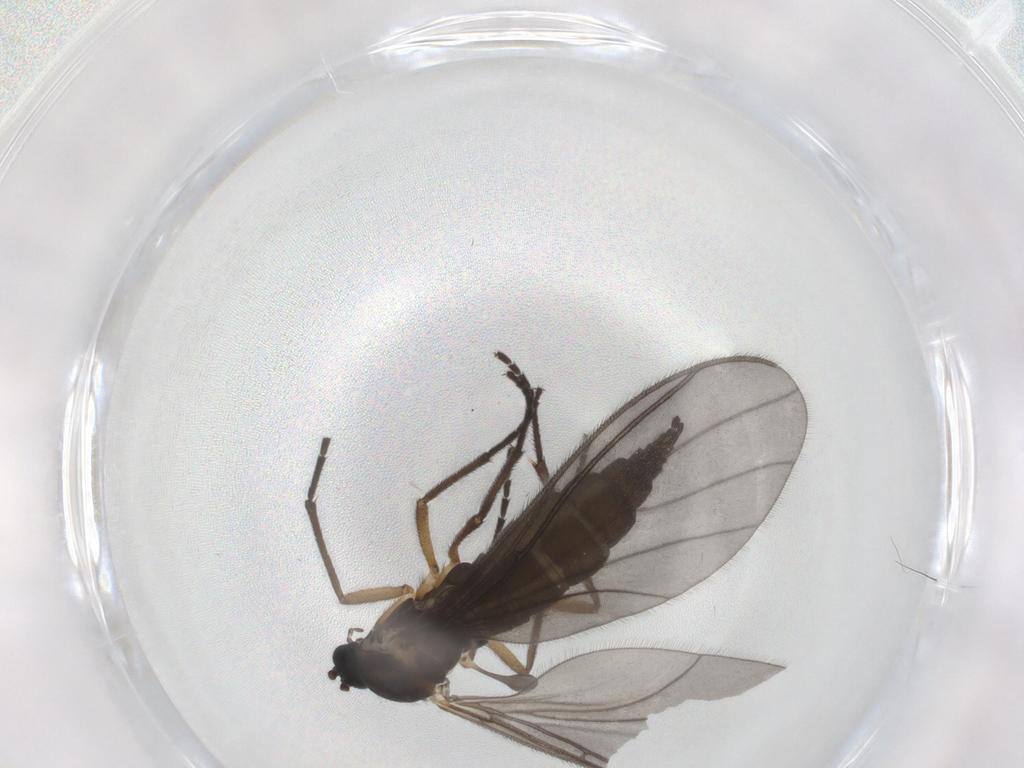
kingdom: Animalia
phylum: Arthropoda
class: Insecta
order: Diptera
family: Sciaridae
